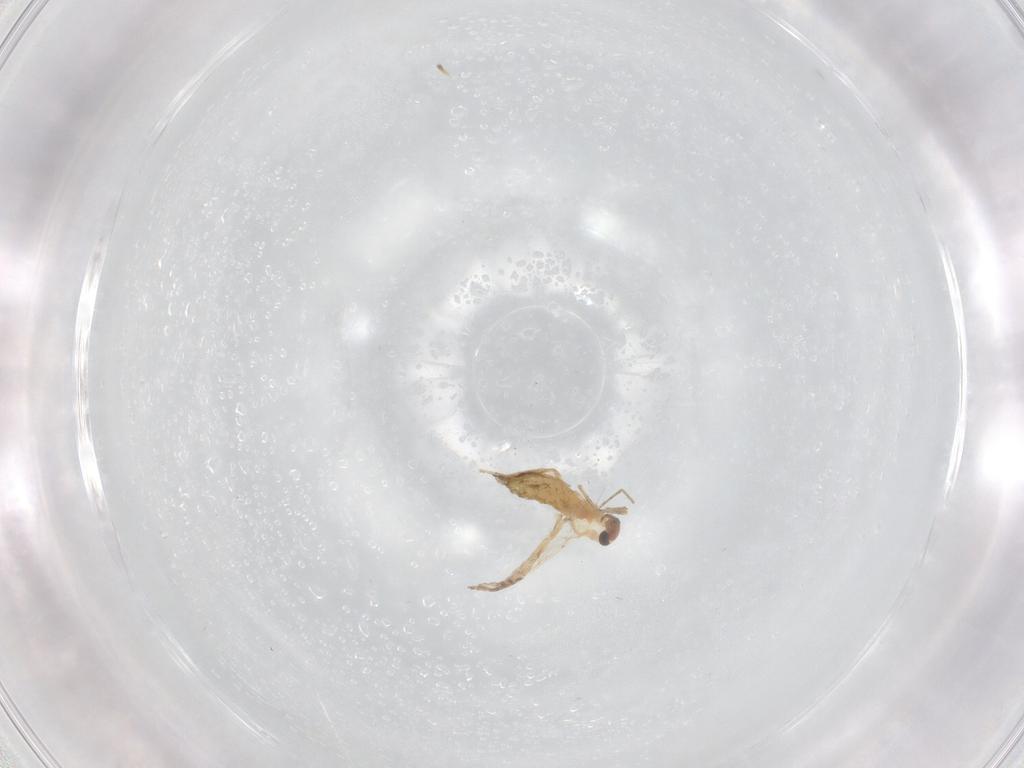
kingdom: Animalia
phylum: Arthropoda
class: Insecta
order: Diptera
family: Chironomidae
